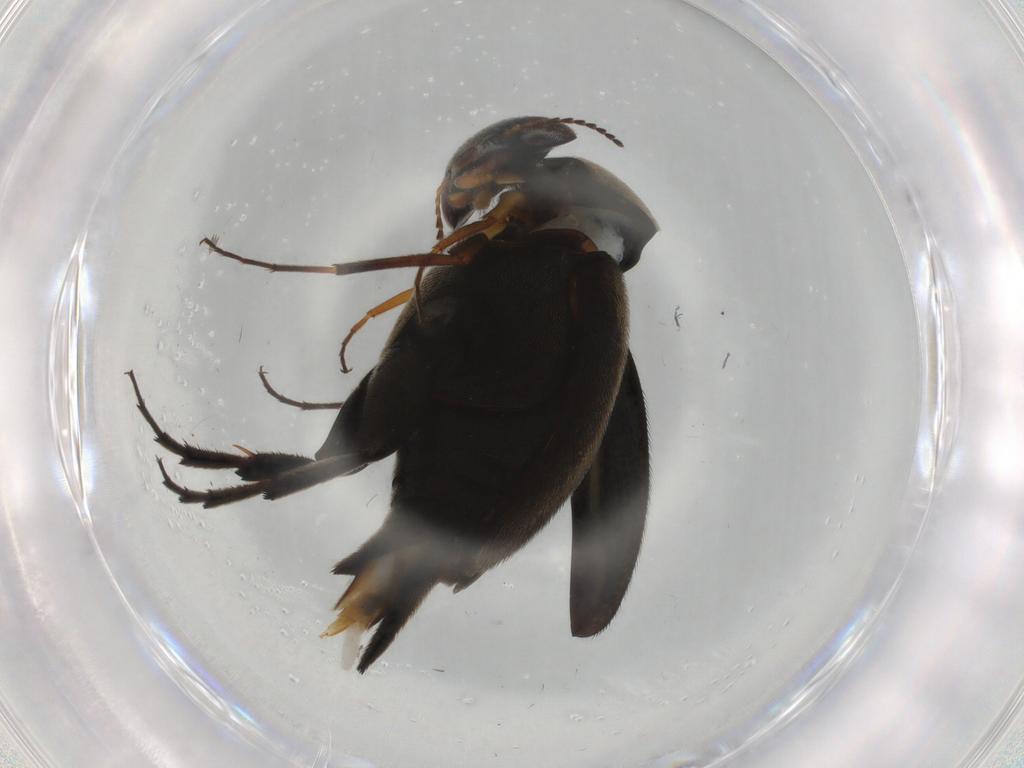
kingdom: Animalia
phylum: Arthropoda
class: Insecta
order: Coleoptera
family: Mordellidae
